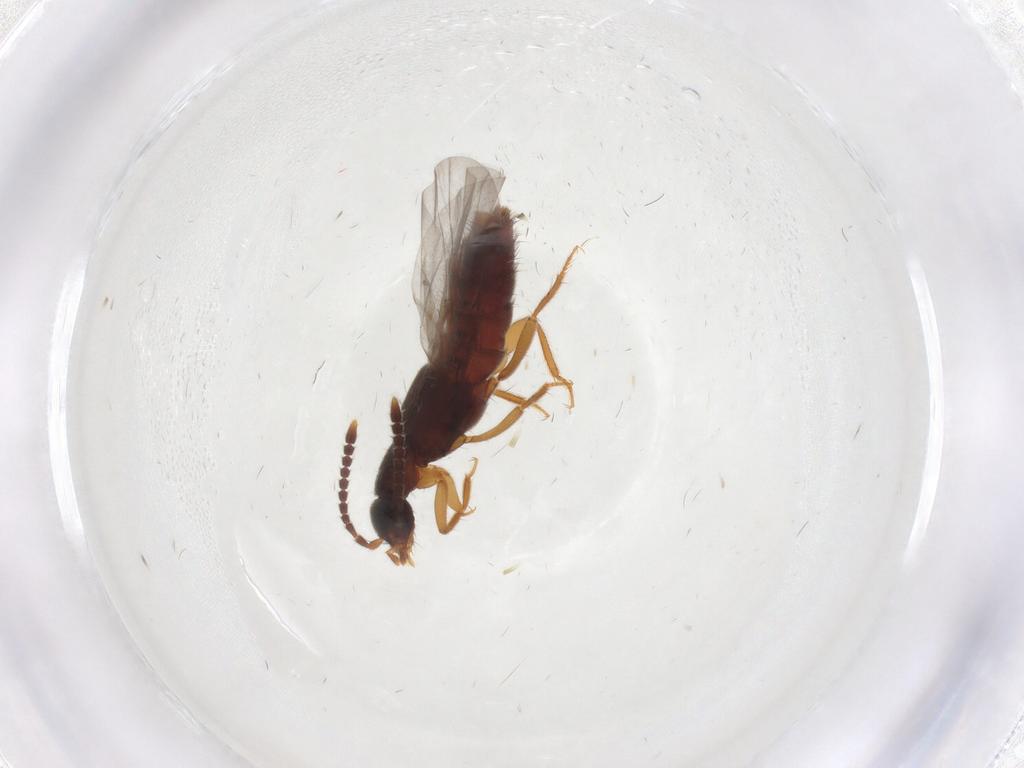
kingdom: Animalia
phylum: Arthropoda
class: Insecta
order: Coleoptera
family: Staphylinidae
